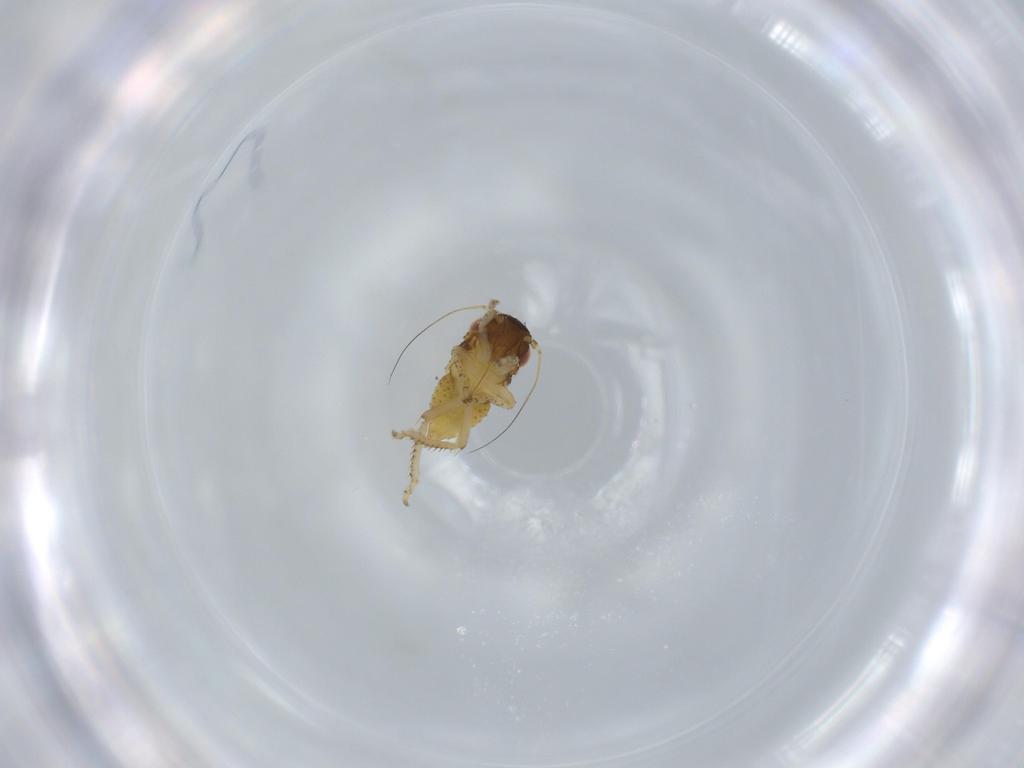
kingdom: Animalia
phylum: Arthropoda
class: Insecta
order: Hemiptera
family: Cicadellidae
